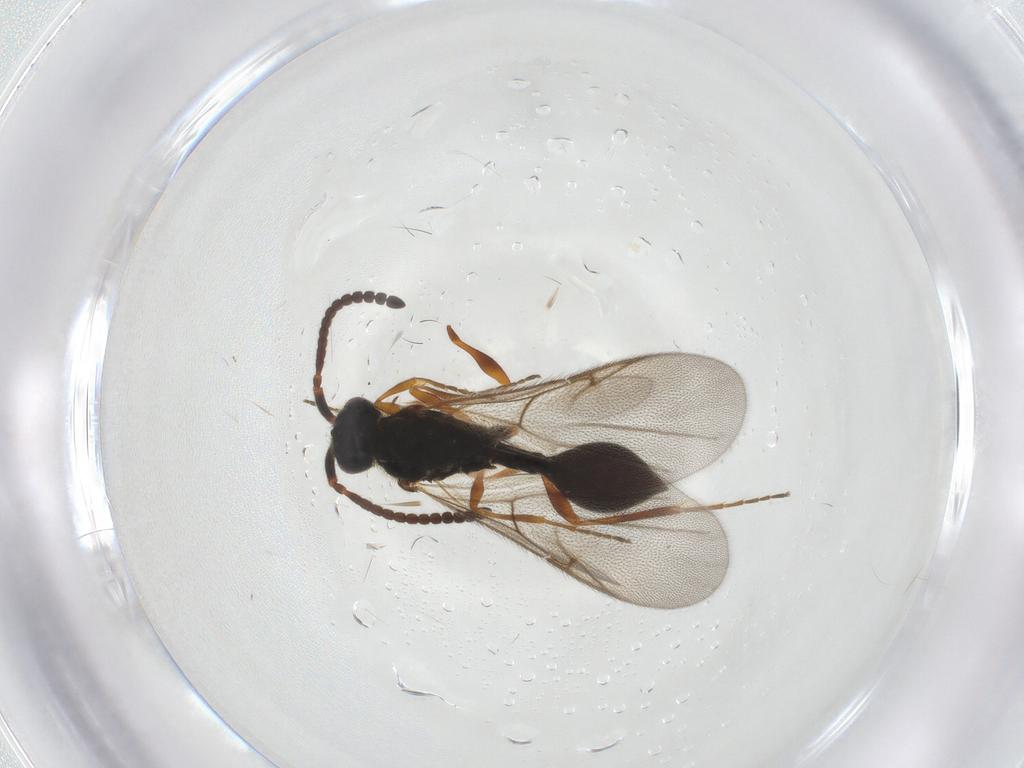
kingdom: Animalia
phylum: Arthropoda
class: Insecta
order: Hymenoptera
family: Diapriidae
